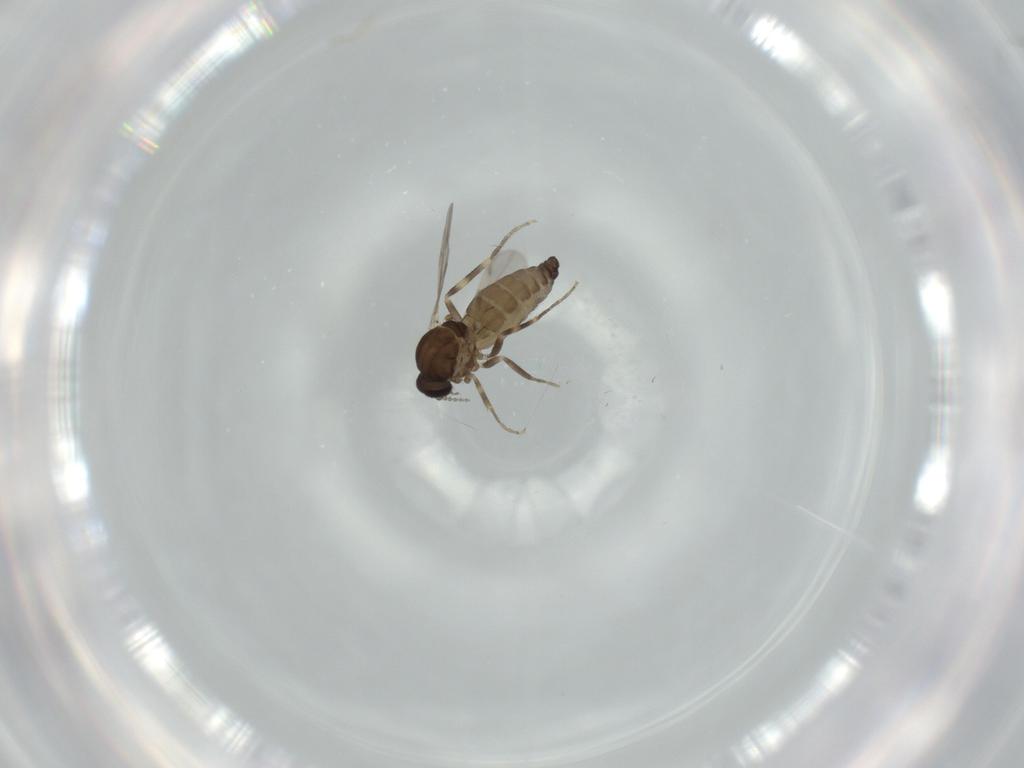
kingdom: Animalia
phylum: Arthropoda
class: Insecta
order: Diptera
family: Ceratopogonidae
